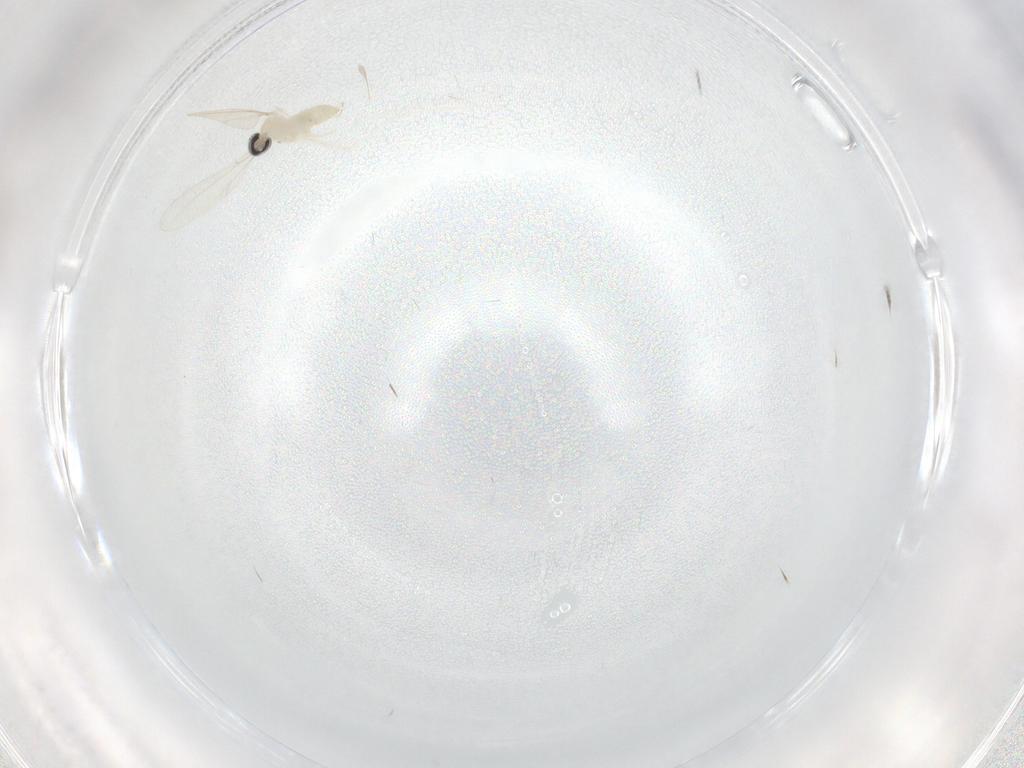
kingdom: Animalia
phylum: Arthropoda
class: Insecta
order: Diptera
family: Cecidomyiidae
